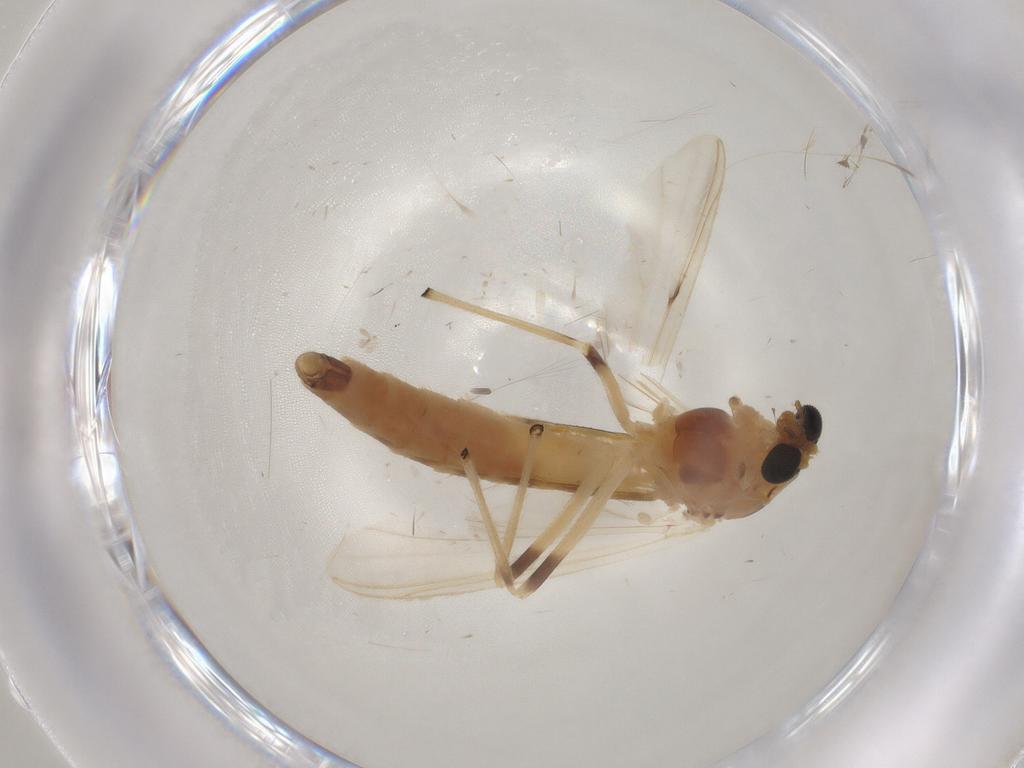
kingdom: Animalia
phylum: Arthropoda
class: Insecta
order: Diptera
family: Chironomidae
